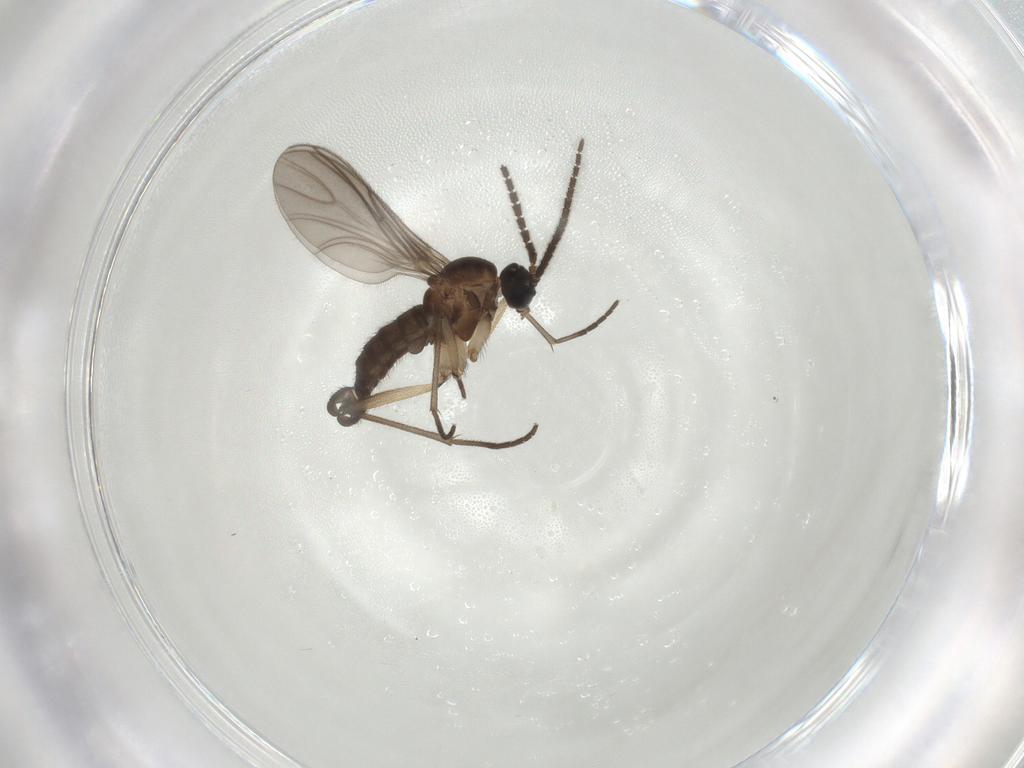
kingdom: Animalia
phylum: Arthropoda
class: Insecta
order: Diptera
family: Sciaridae
